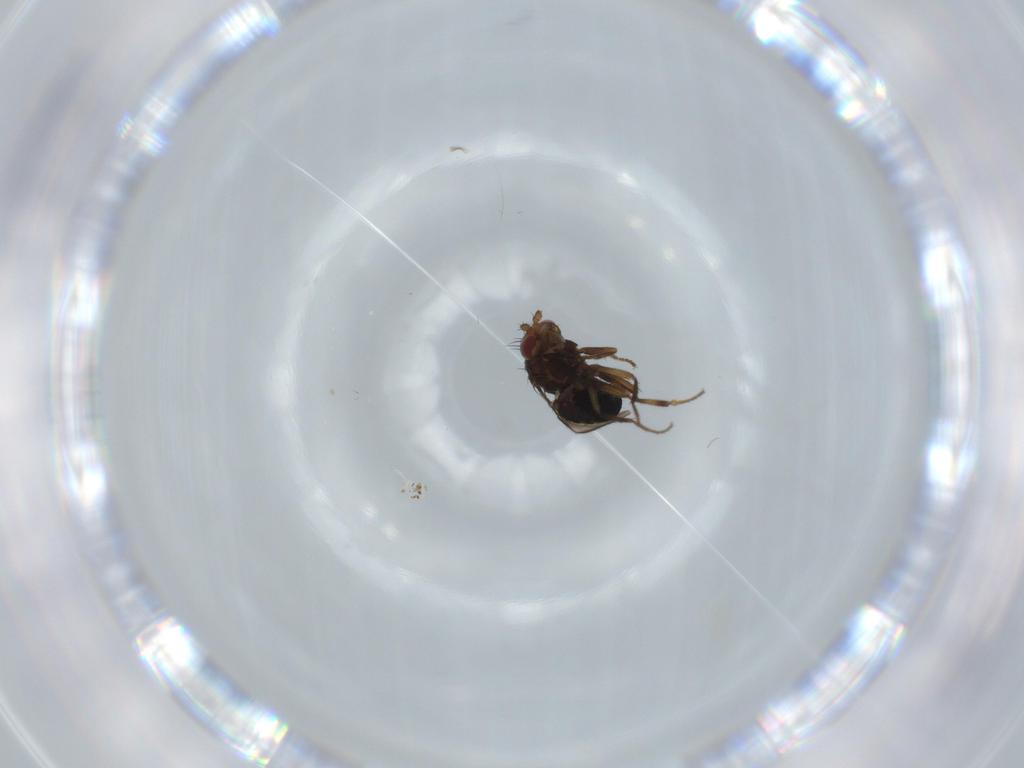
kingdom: Animalia
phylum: Arthropoda
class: Insecta
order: Diptera
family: Sphaeroceridae
